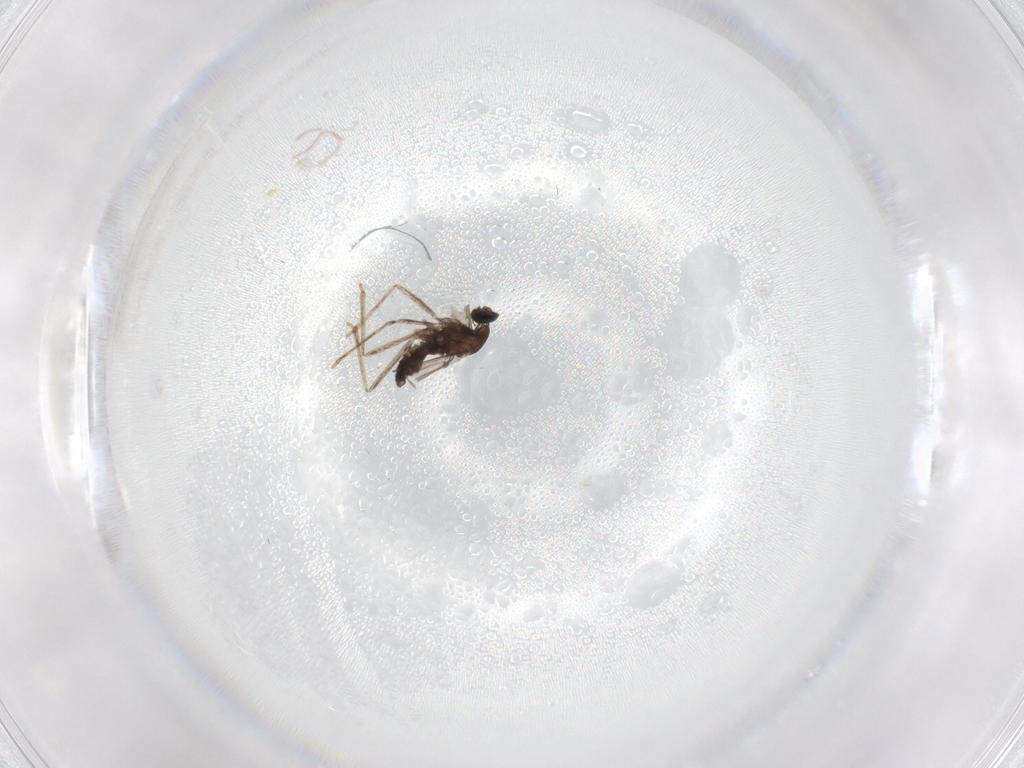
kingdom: Animalia
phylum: Arthropoda
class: Insecta
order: Diptera
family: Cecidomyiidae
